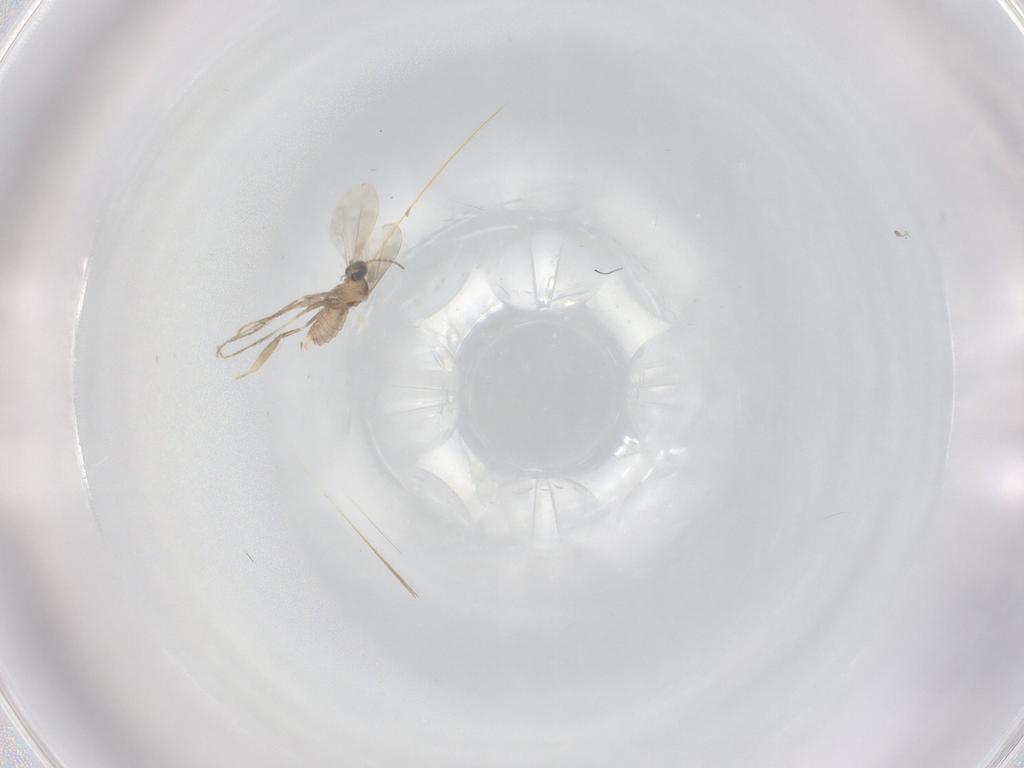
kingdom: Animalia
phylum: Arthropoda
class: Insecta
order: Diptera
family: Cecidomyiidae
